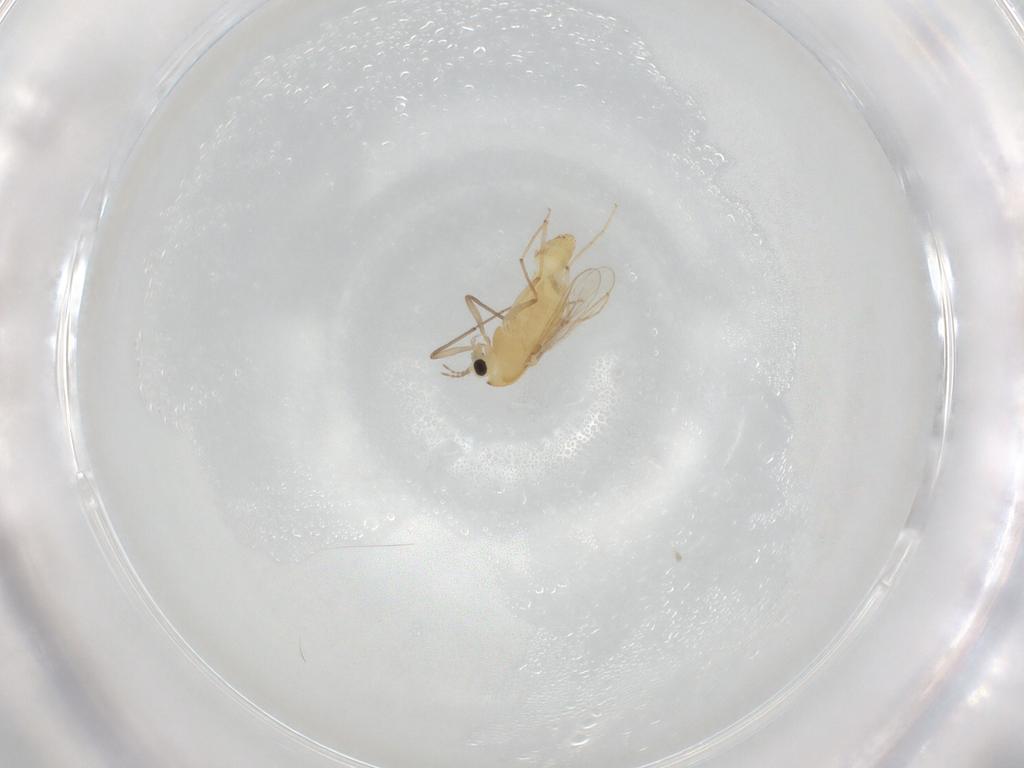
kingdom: Animalia
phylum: Arthropoda
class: Insecta
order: Diptera
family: Chironomidae
